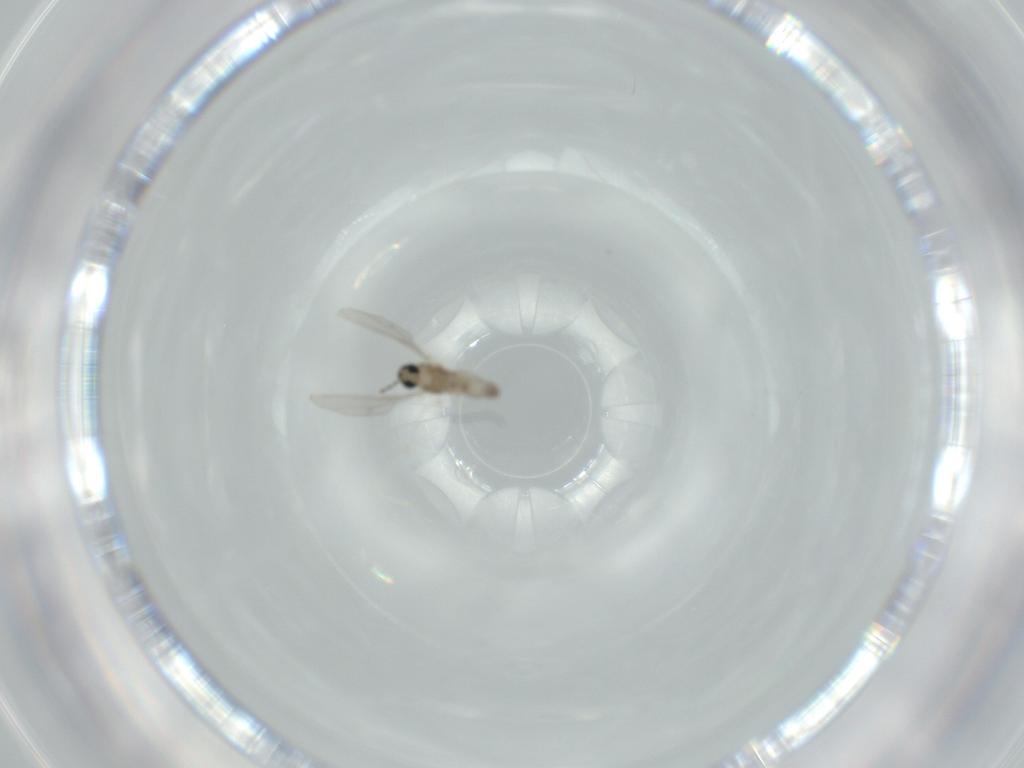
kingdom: Animalia
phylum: Arthropoda
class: Insecta
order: Diptera
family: Cecidomyiidae
